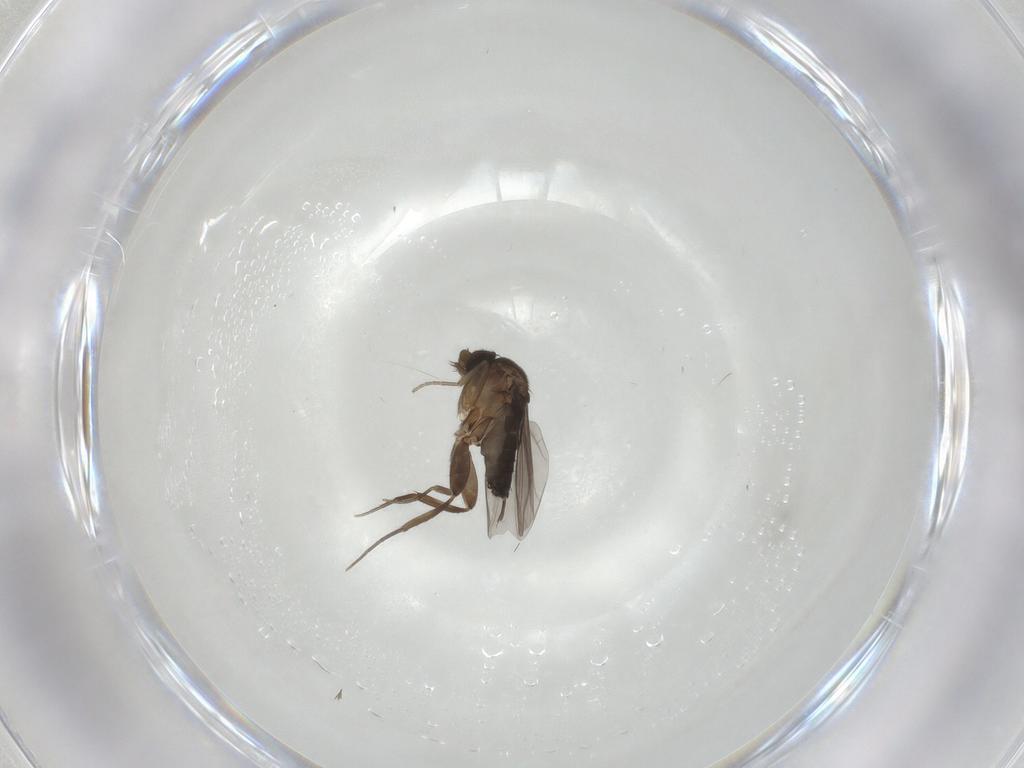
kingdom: Animalia
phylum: Arthropoda
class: Insecta
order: Diptera
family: Phoridae
